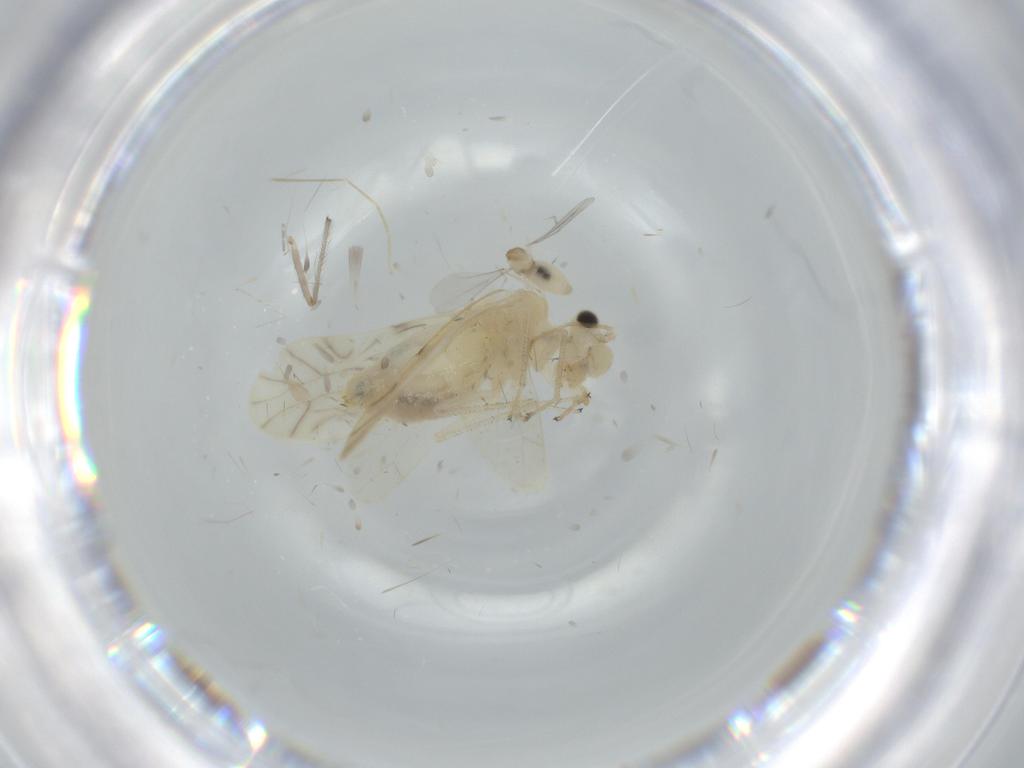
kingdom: Animalia
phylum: Arthropoda
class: Insecta
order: Psocodea
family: Caeciliusidae
